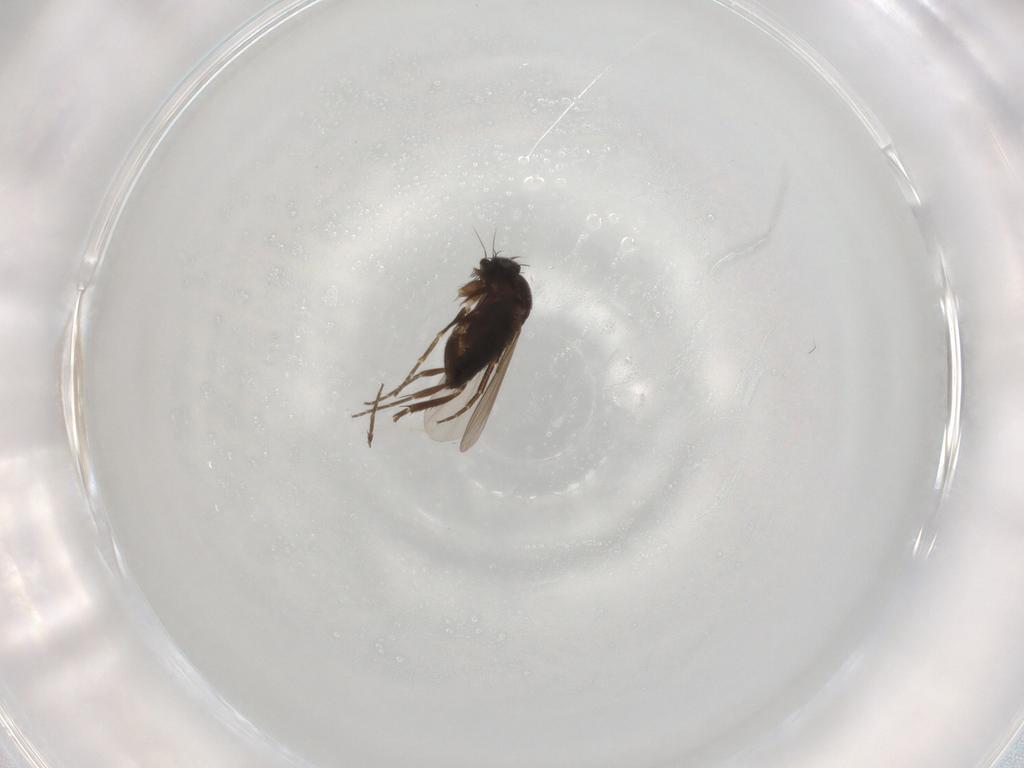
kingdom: Animalia
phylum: Arthropoda
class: Insecta
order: Diptera
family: Phoridae
